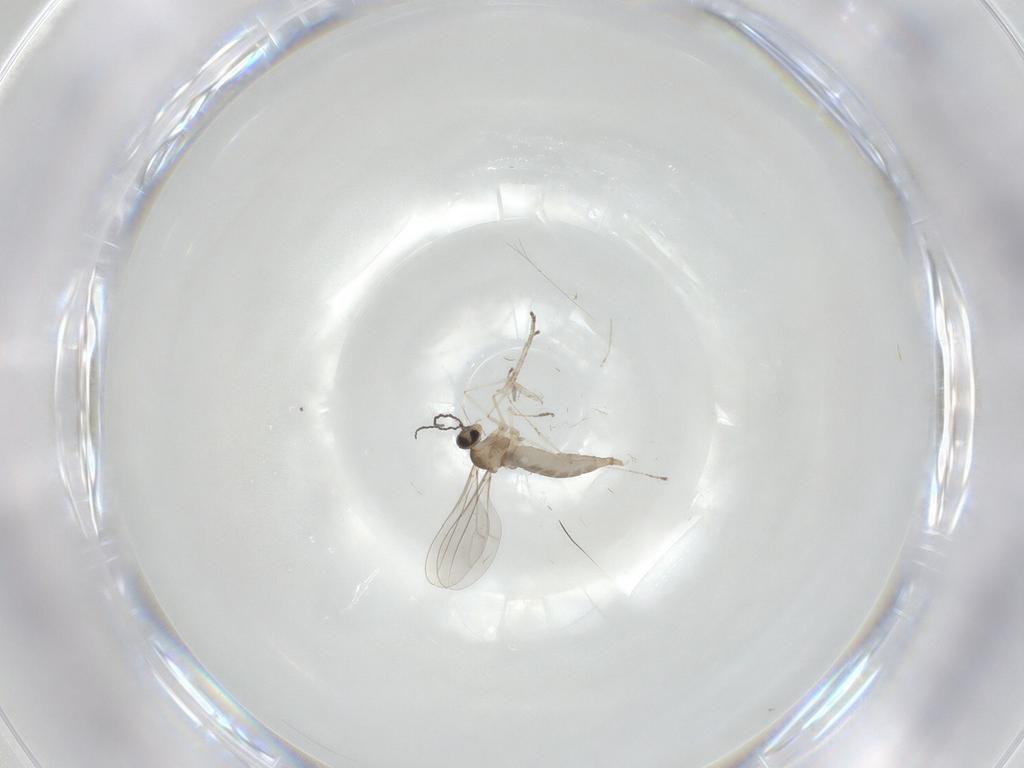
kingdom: Animalia
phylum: Arthropoda
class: Insecta
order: Diptera
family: Cecidomyiidae
